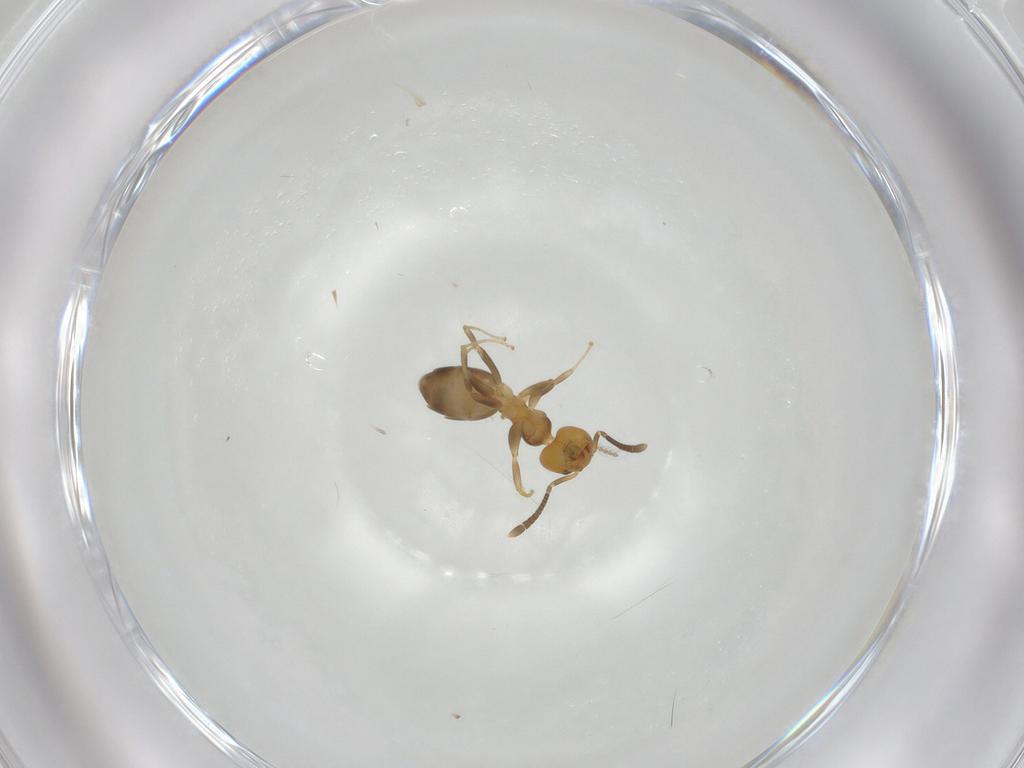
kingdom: Animalia
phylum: Arthropoda
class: Insecta
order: Hymenoptera
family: Formicidae
